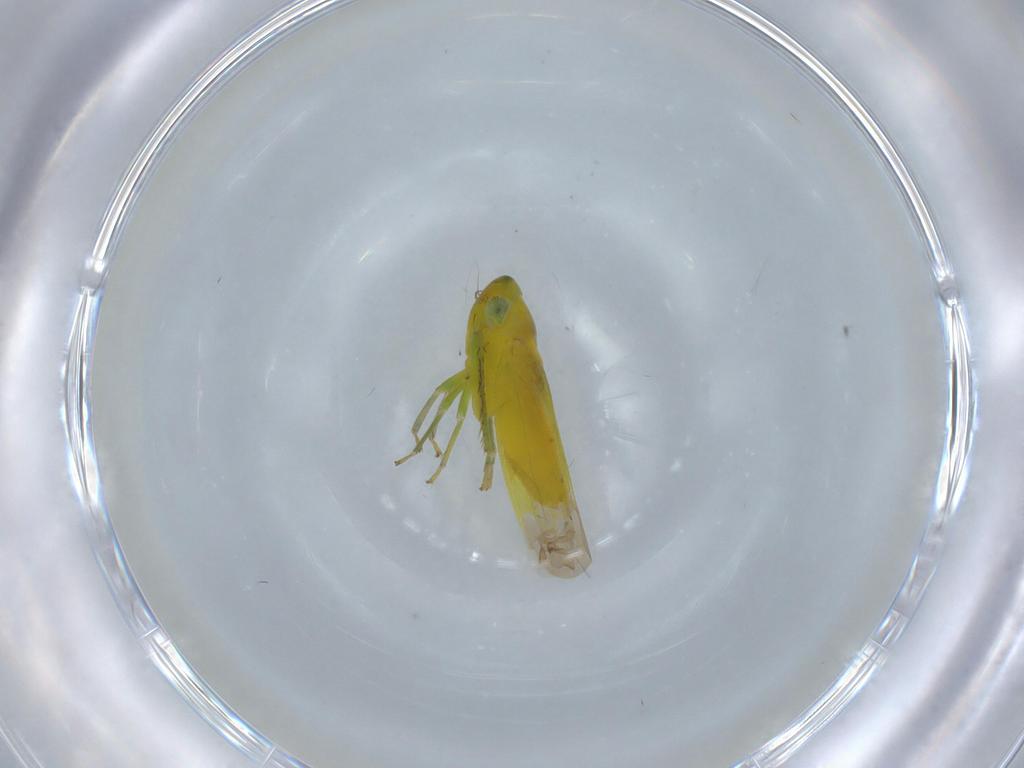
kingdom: Animalia
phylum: Arthropoda
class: Insecta
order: Hemiptera
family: Cicadellidae
